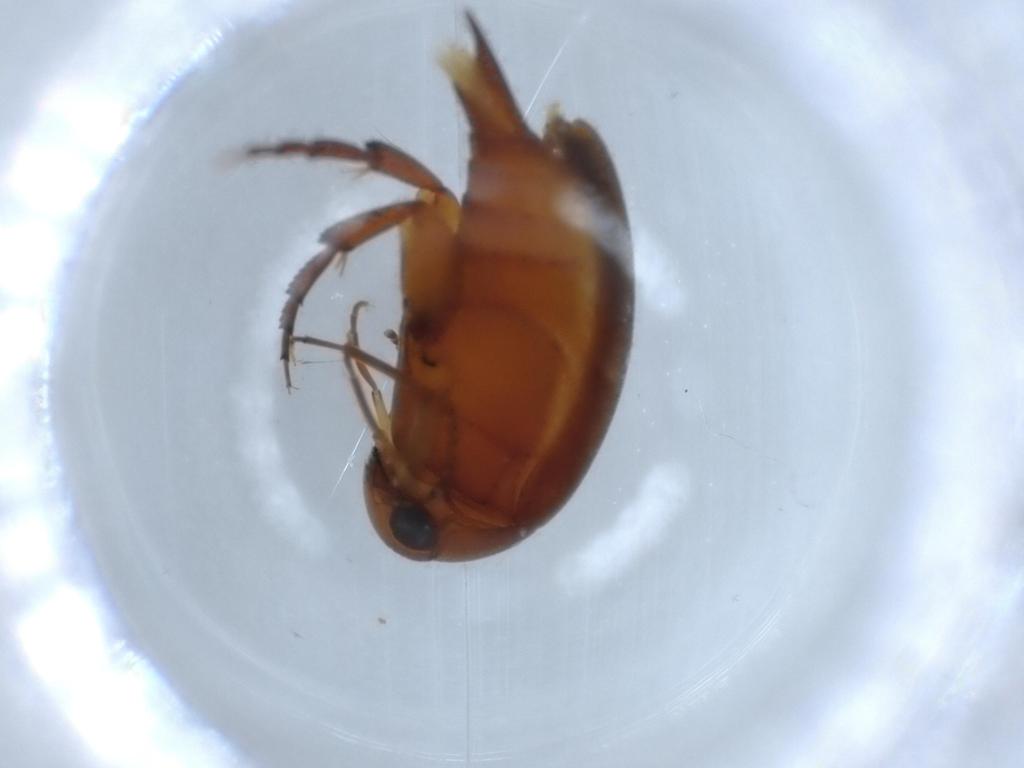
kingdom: Animalia
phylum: Arthropoda
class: Insecta
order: Coleoptera
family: Mordellidae
